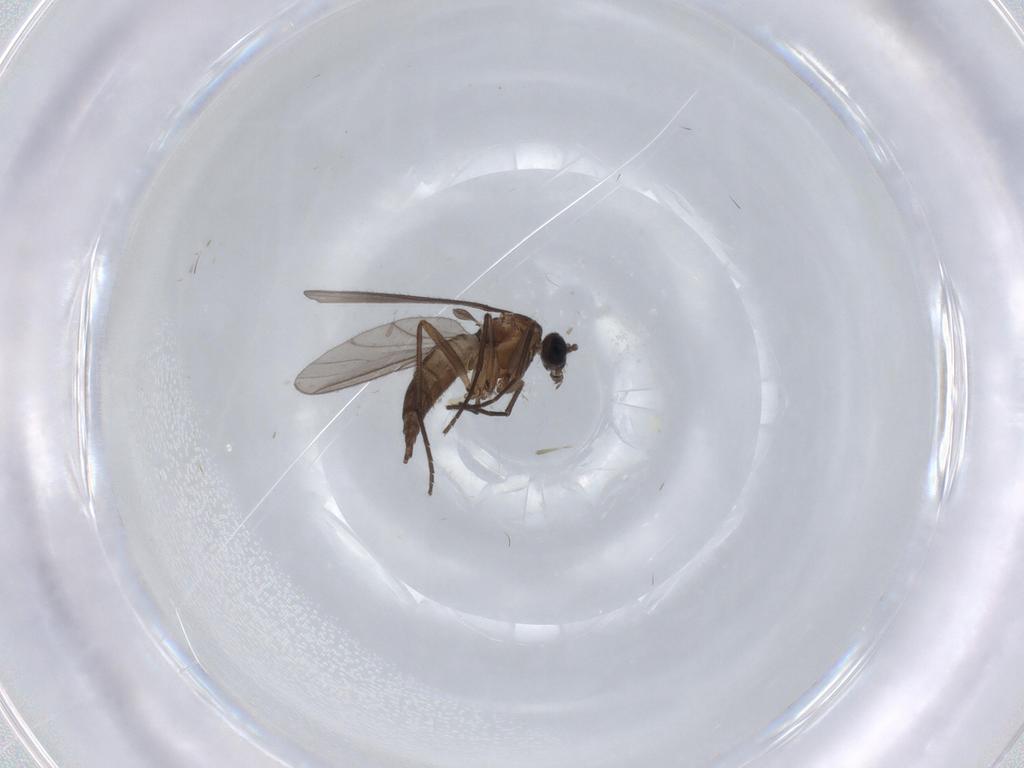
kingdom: Animalia
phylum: Arthropoda
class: Insecta
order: Diptera
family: Sciaridae
